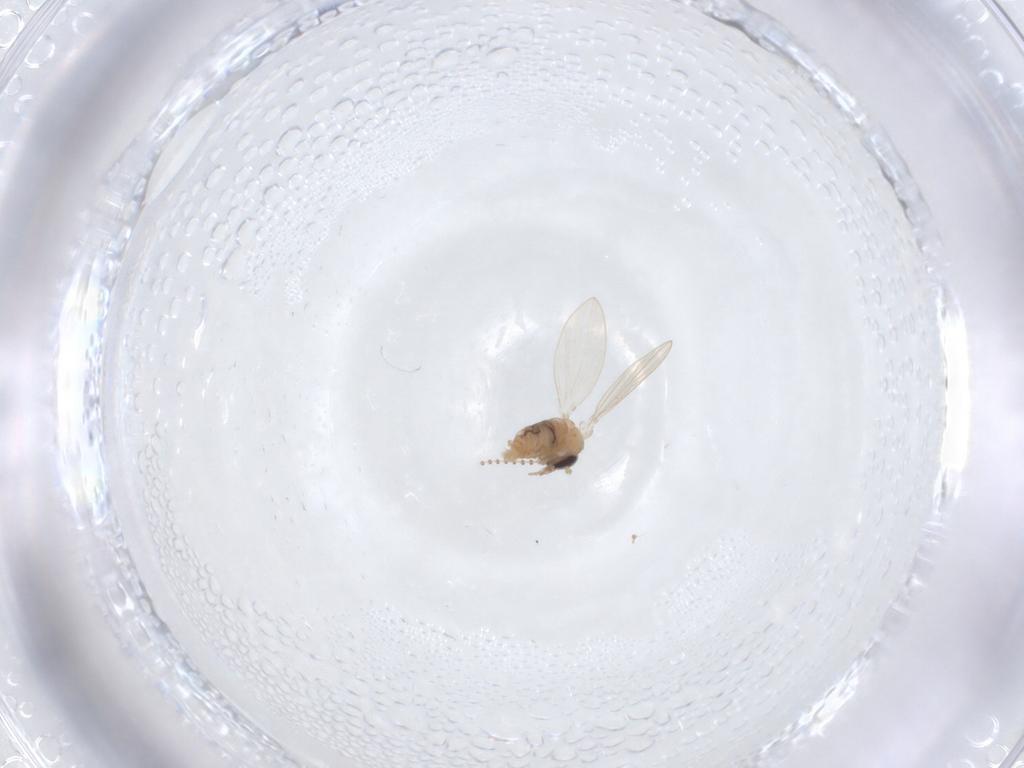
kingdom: Animalia
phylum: Arthropoda
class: Insecta
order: Diptera
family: Psychodidae
